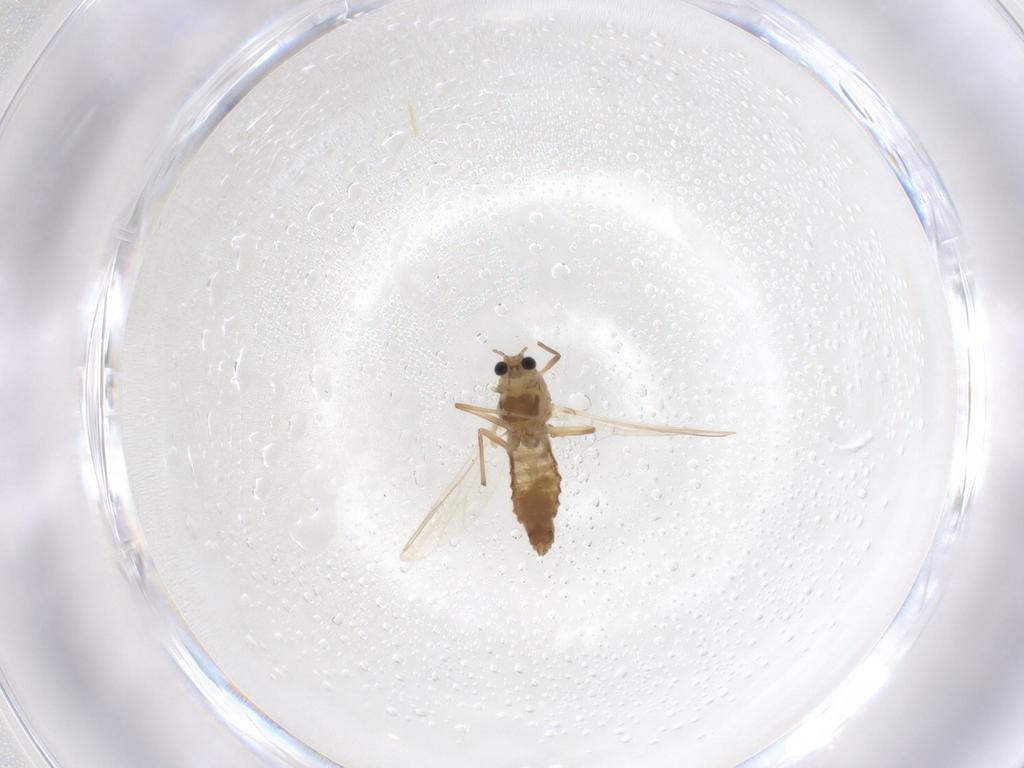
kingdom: Animalia
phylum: Arthropoda
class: Insecta
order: Diptera
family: Chironomidae
